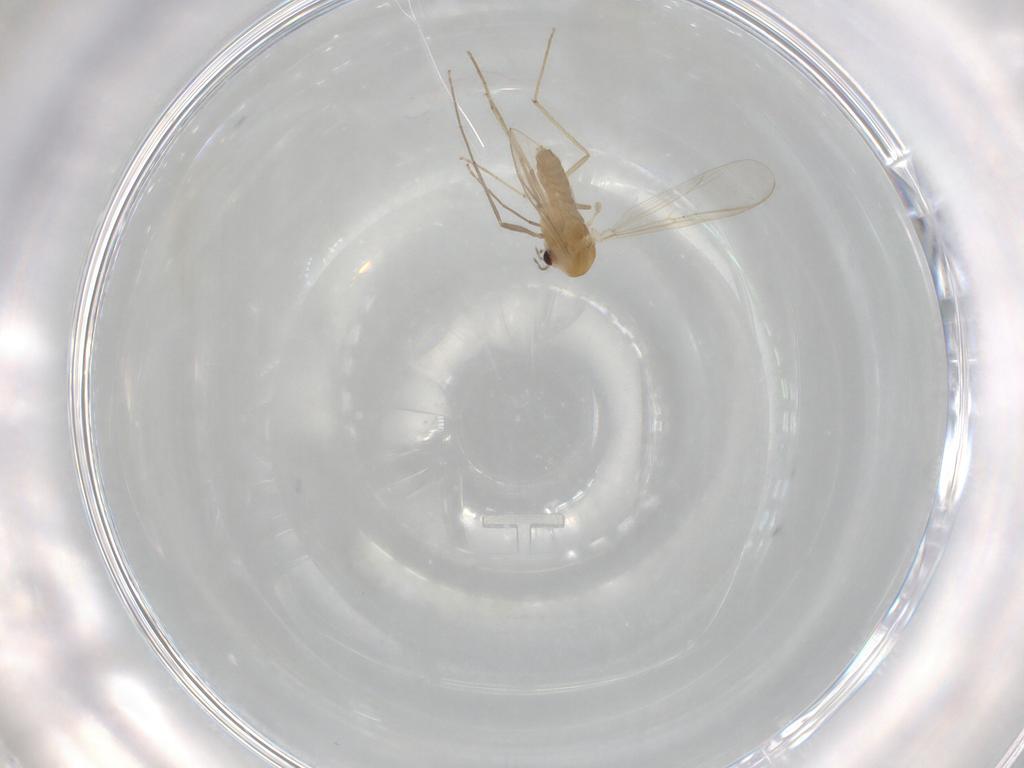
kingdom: Animalia
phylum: Arthropoda
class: Insecta
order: Diptera
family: Chironomidae
